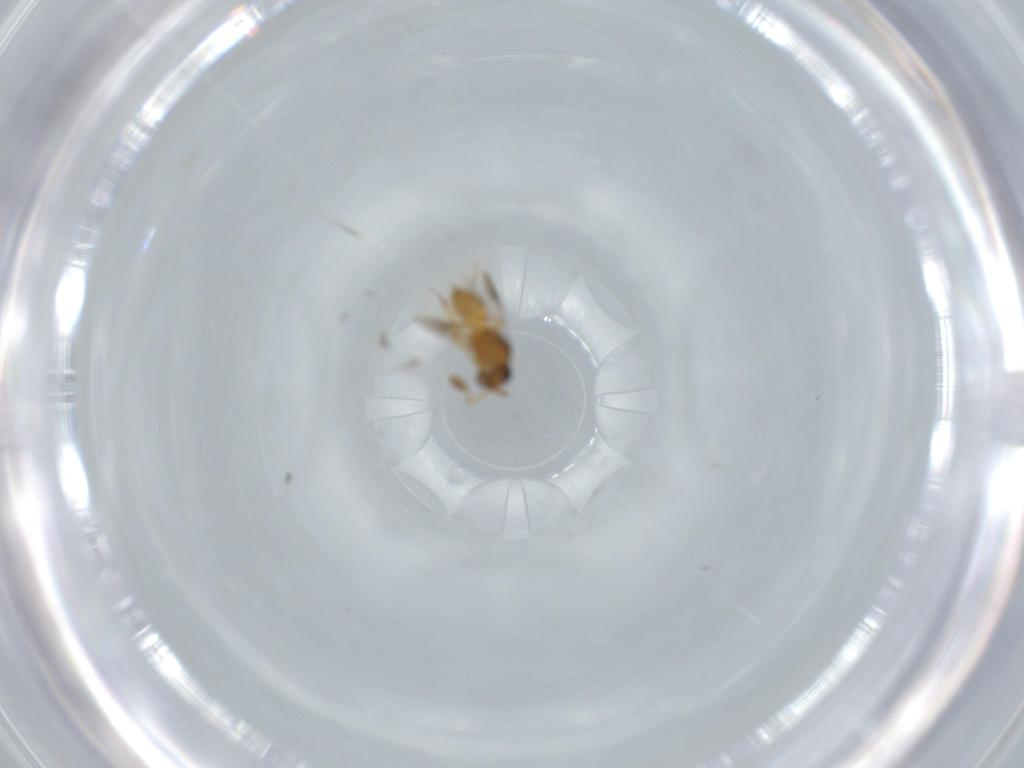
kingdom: Animalia
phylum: Arthropoda
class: Insecta
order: Hymenoptera
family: Scelionidae
